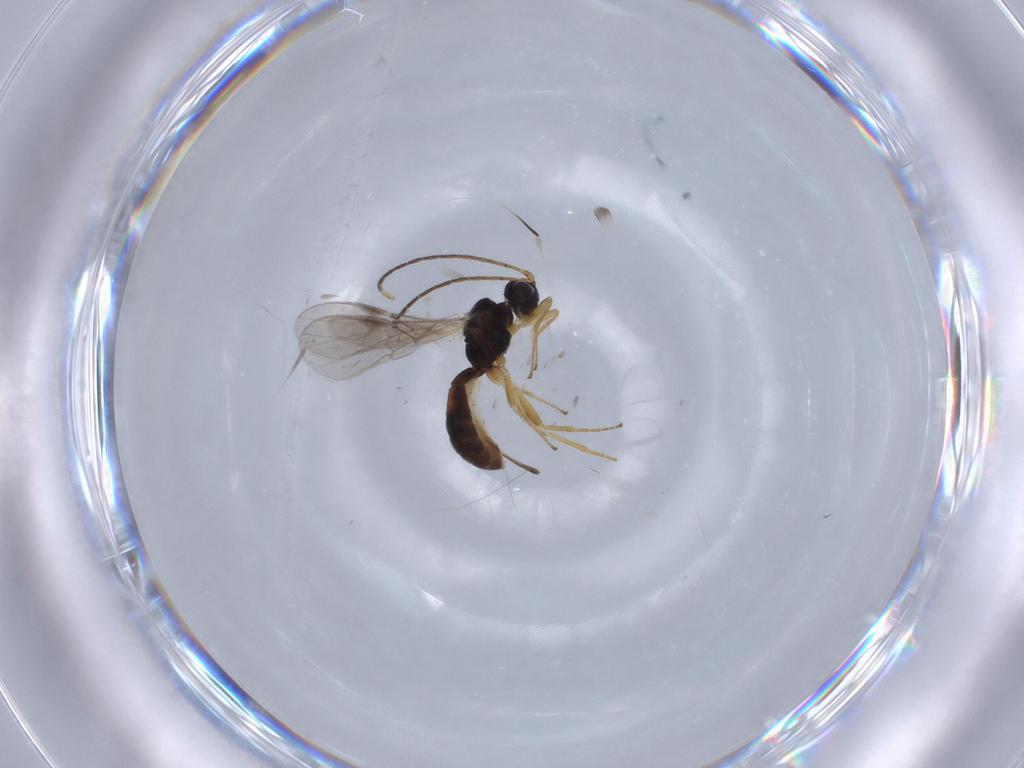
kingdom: Animalia
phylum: Arthropoda
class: Insecta
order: Hymenoptera
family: Braconidae
